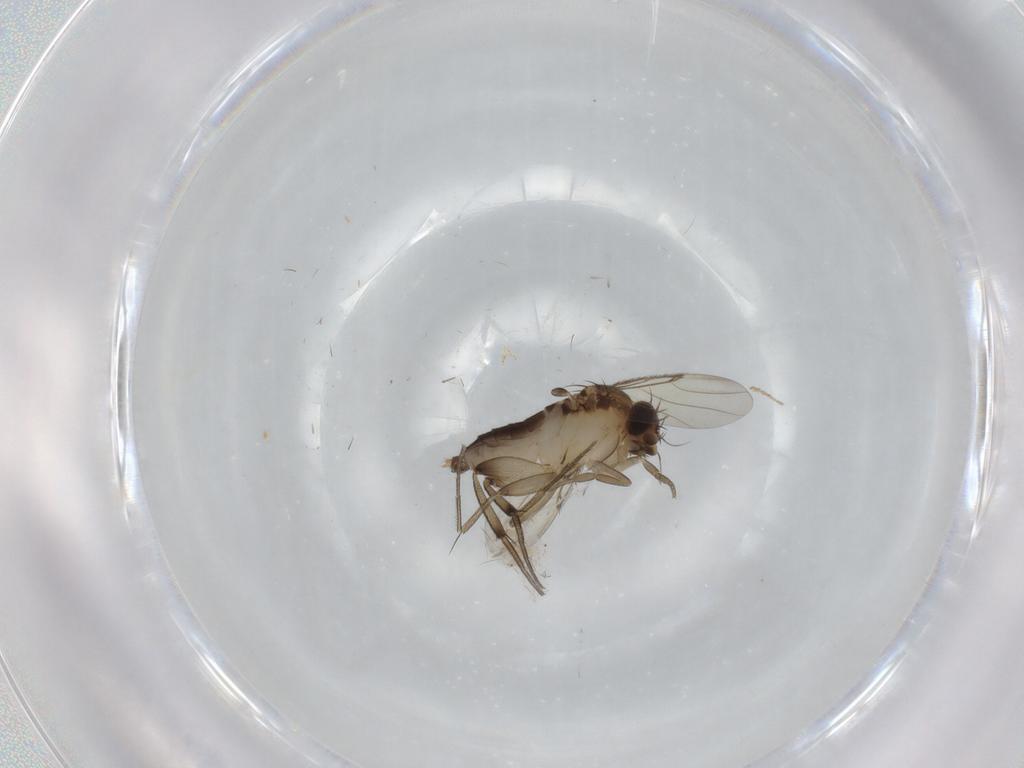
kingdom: Animalia
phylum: Arthropoda
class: Insecta
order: Diptera
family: Phoridae
